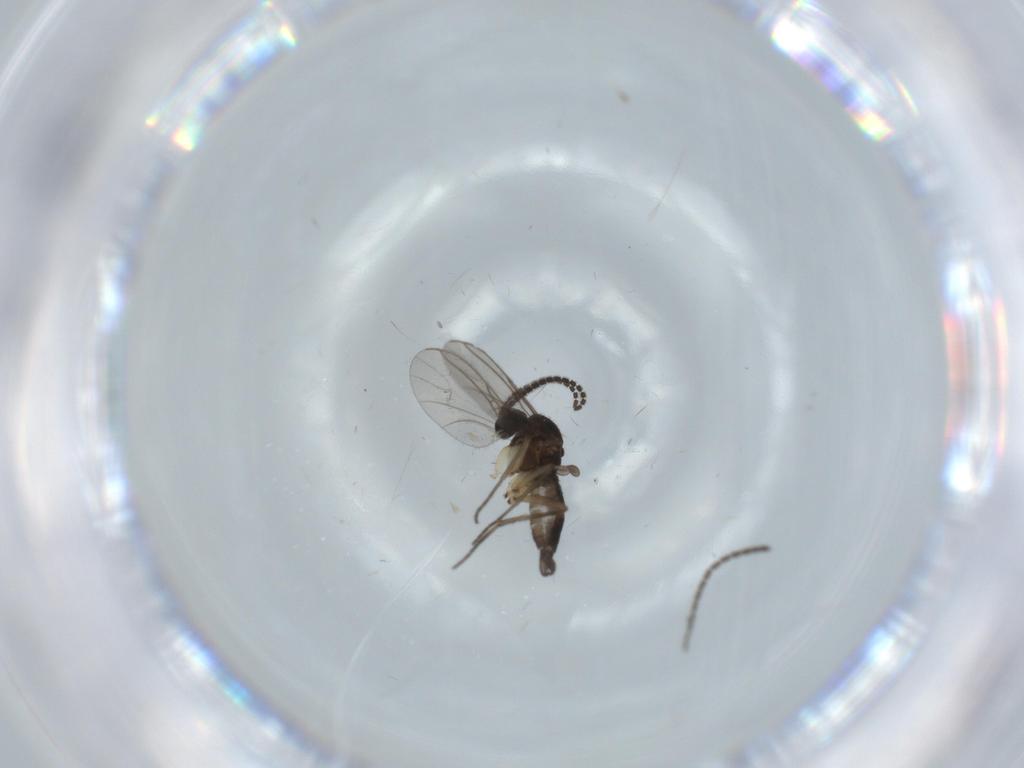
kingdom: Animalia
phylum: Arthropoda
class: Insecta
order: Diptera
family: Sciaridae
